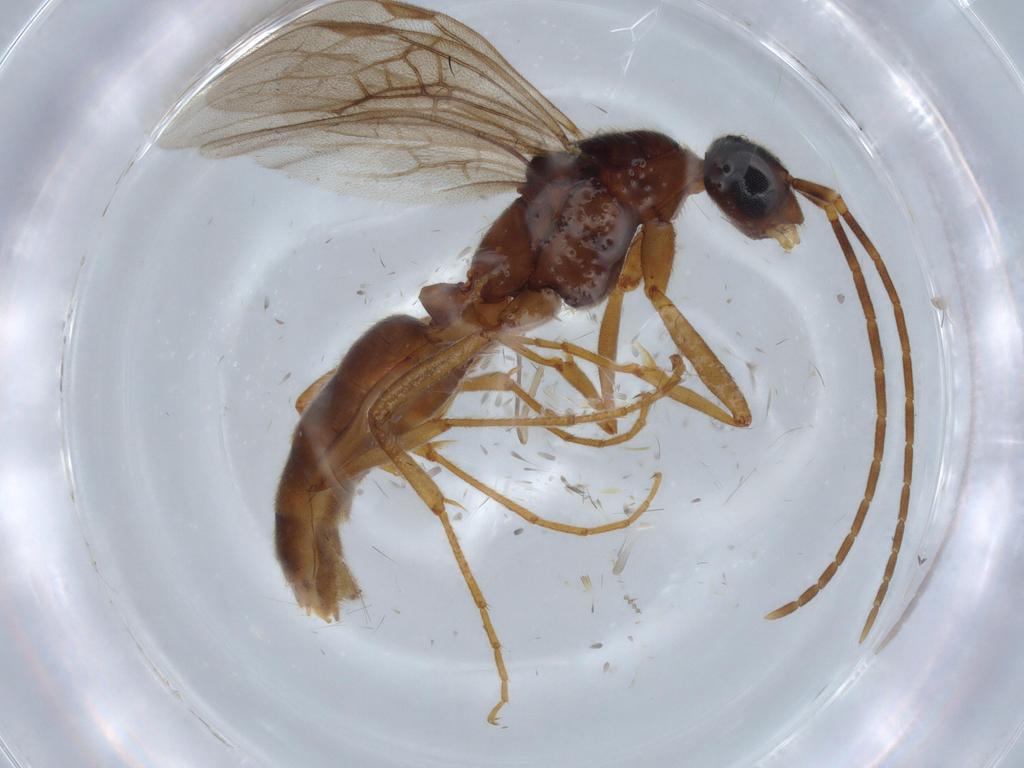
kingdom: Animalia
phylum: Arthropoda
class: Insecta
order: Hymenoptera
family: Formicidae
